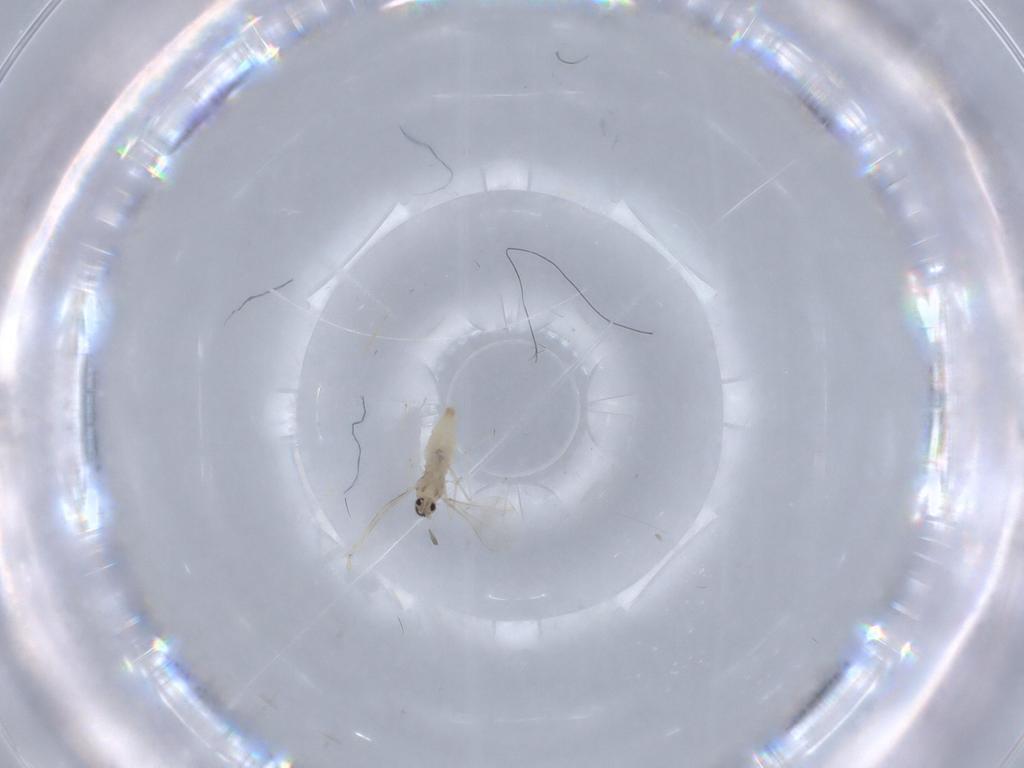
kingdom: Animalia
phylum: Arthropoda
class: Insecta
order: Diptera
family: Cecidomyiidae
